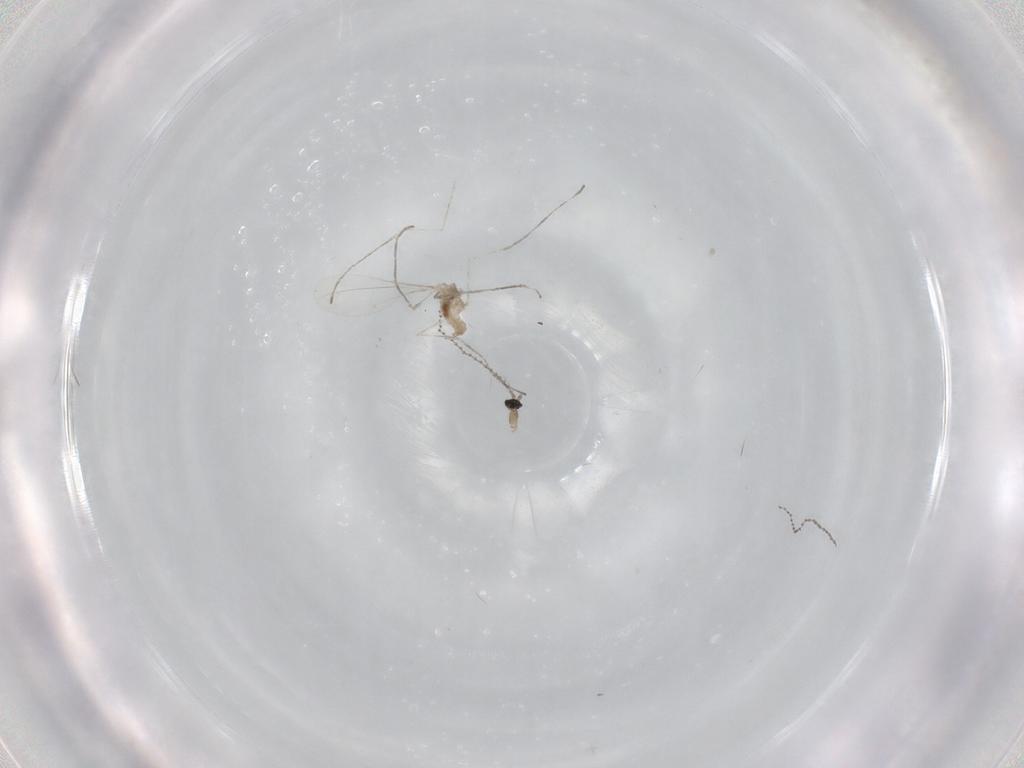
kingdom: Animalia
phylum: Arthropoda
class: Insecta
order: Diptera
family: Cecidomyiidae
